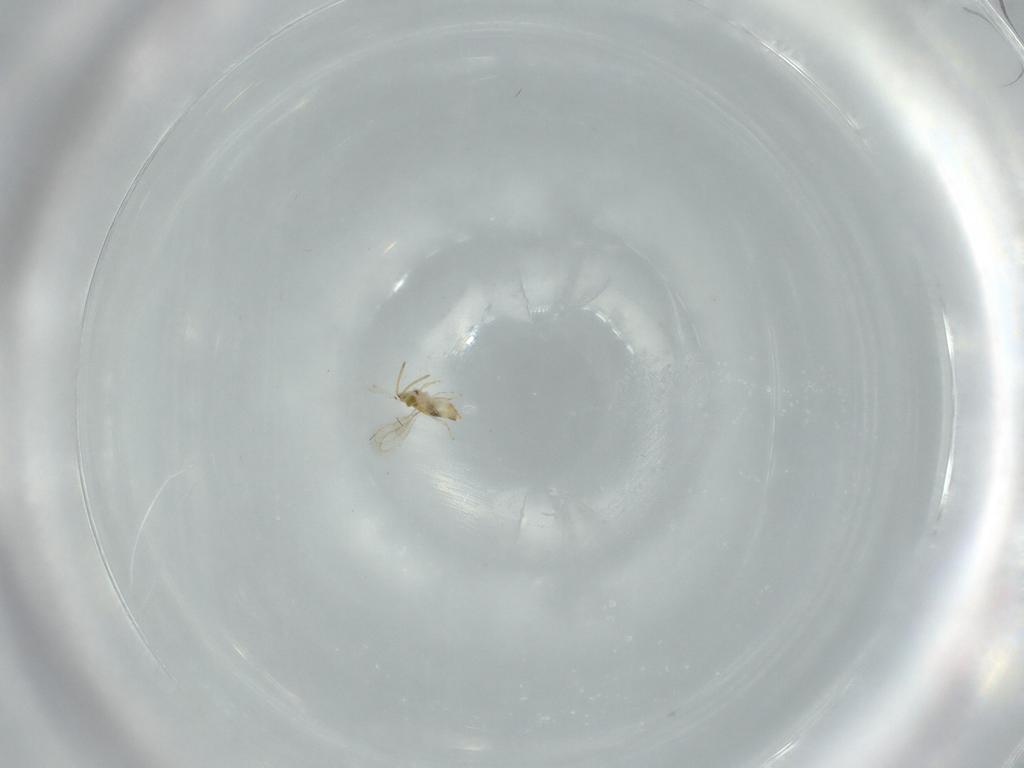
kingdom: Animalia
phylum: Arthropoda
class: Insecta
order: Hymenoptera
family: Aphelinidae
